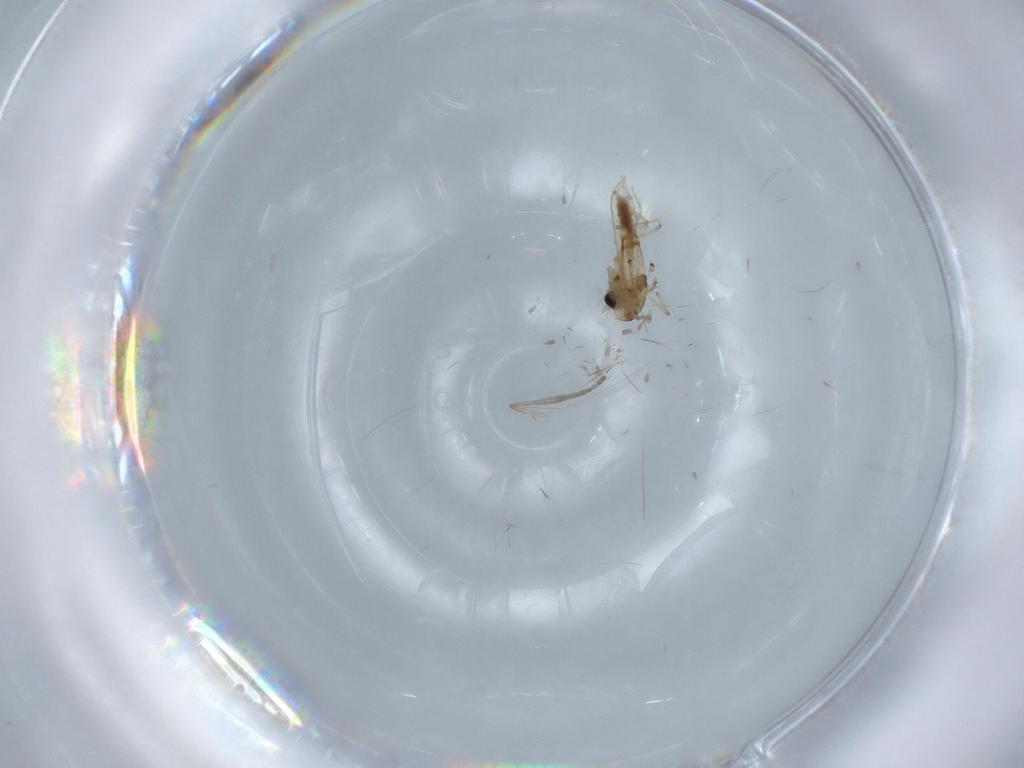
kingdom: Animalia
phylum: Arthropoda
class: Insecta
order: Diptera
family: Chironomidae
